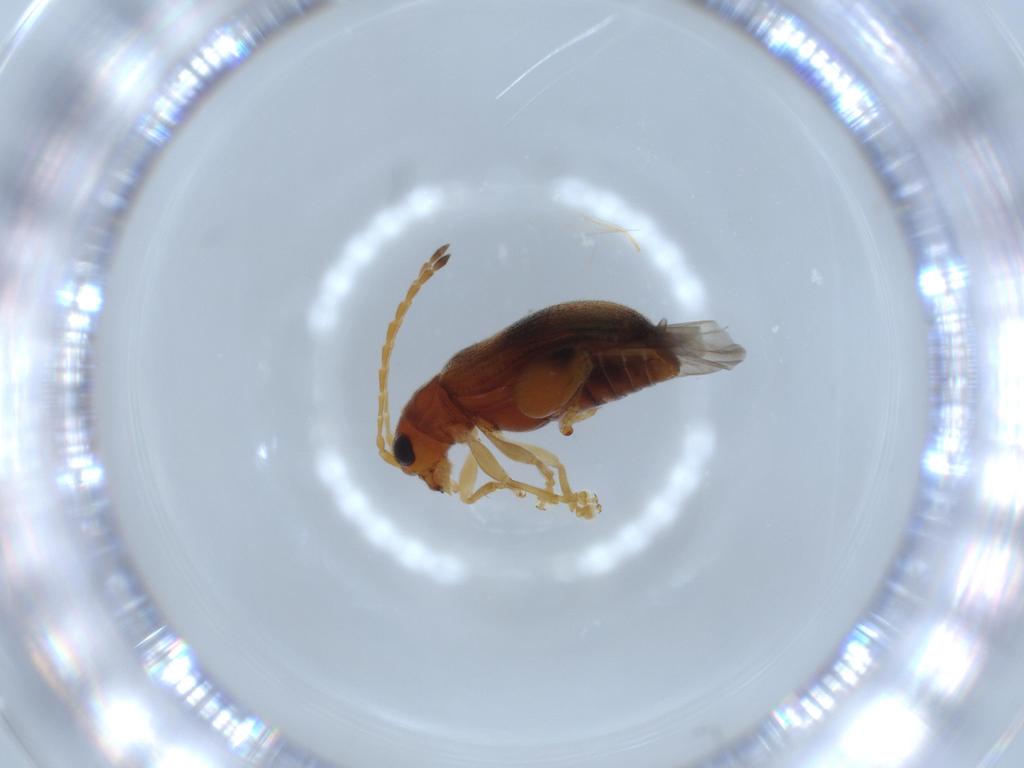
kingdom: Animalia
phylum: Arthropoda
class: Insecta
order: Coleoptera
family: Chrysomelidae
